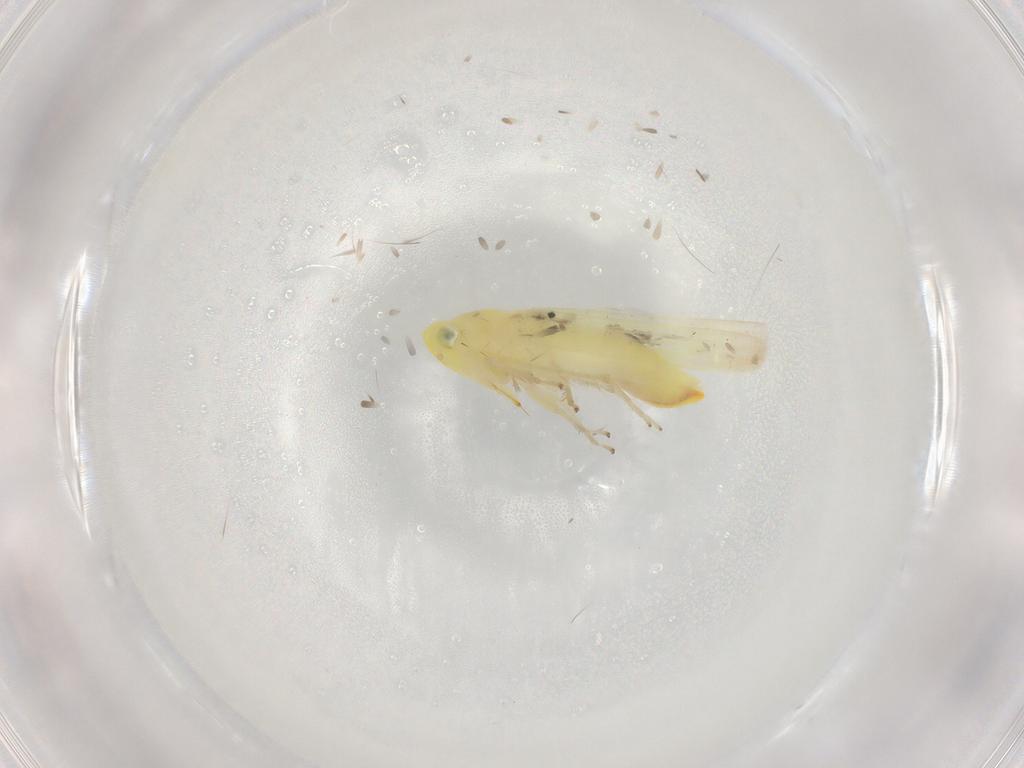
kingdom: Animalia
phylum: Arthropoda
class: Insecta
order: Hemiptera
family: Cicadellidae
